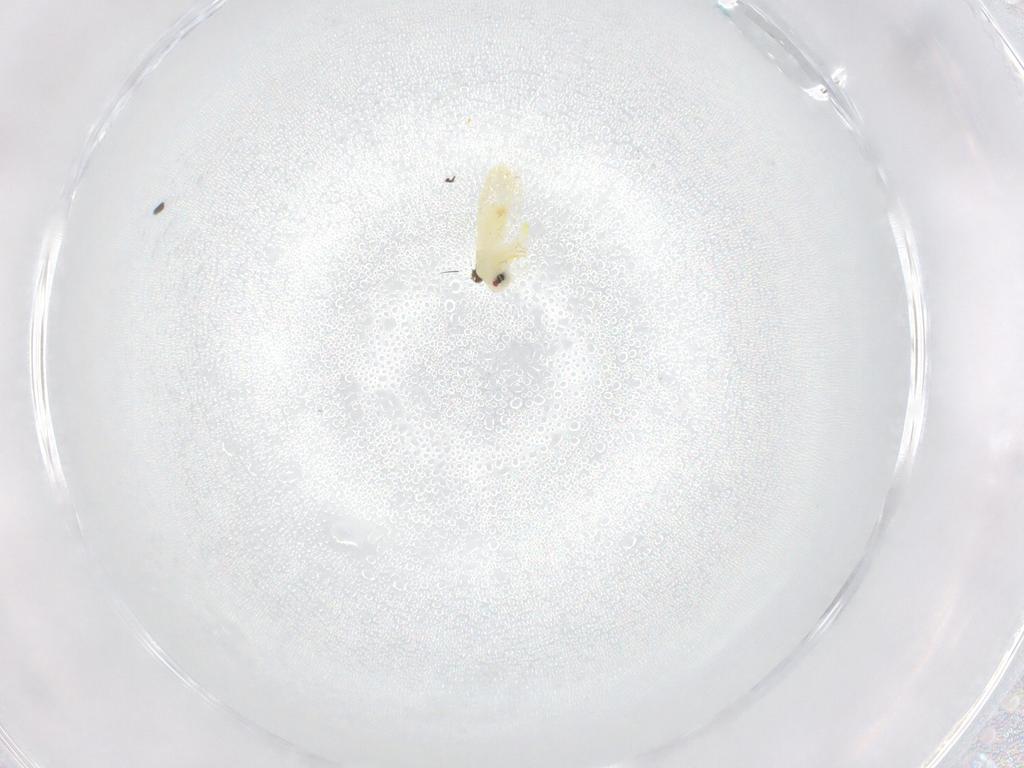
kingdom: Animalia
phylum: Arthropoda
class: Insecta
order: Hemiptera
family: Aleyrodidae
